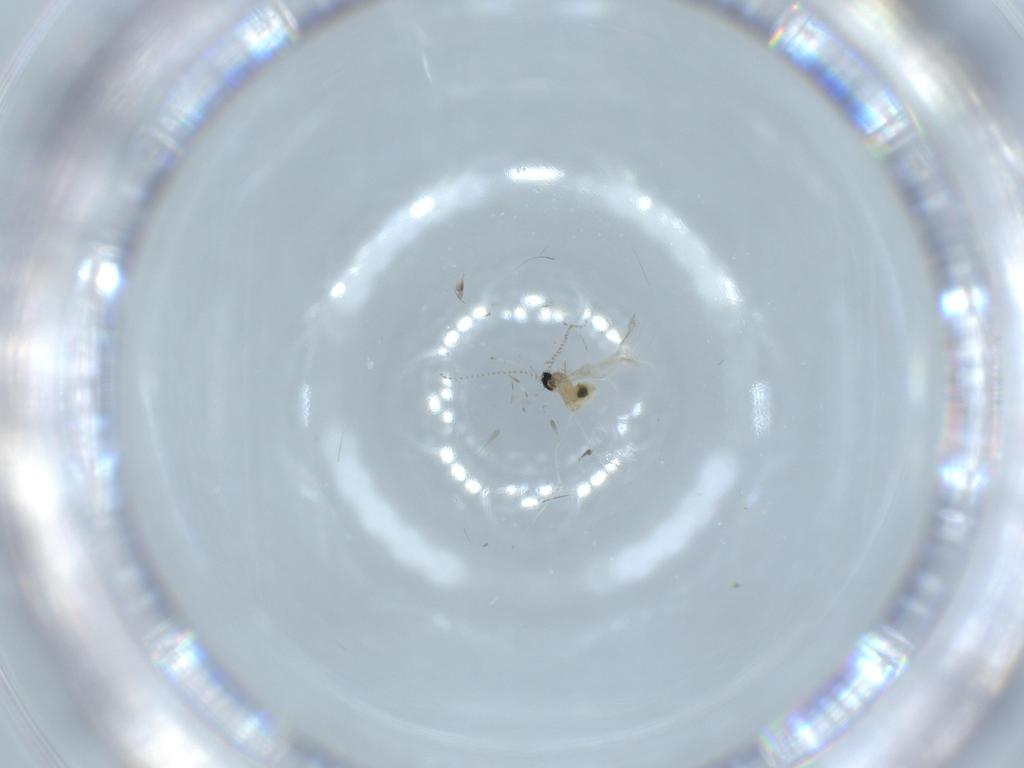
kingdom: Animalia
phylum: Arthropoda
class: Insecta
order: Diptera
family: Cecidomyiidae
